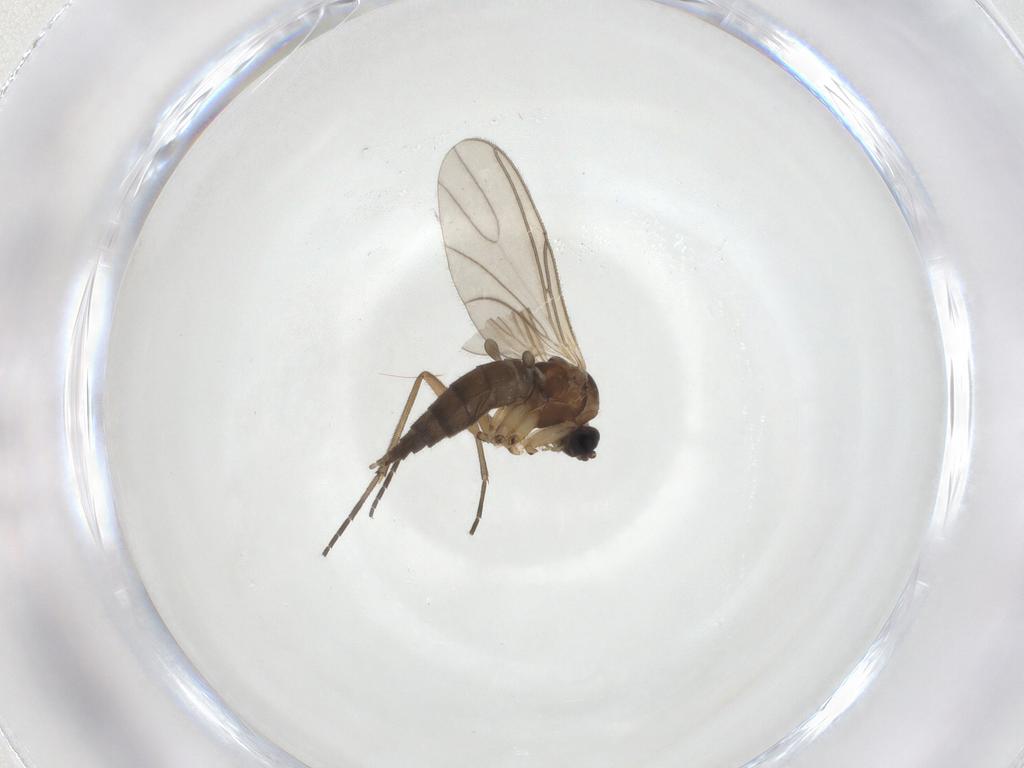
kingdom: Animalia
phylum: Arthropoda
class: Insecta
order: Diptera
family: Sciaridae
